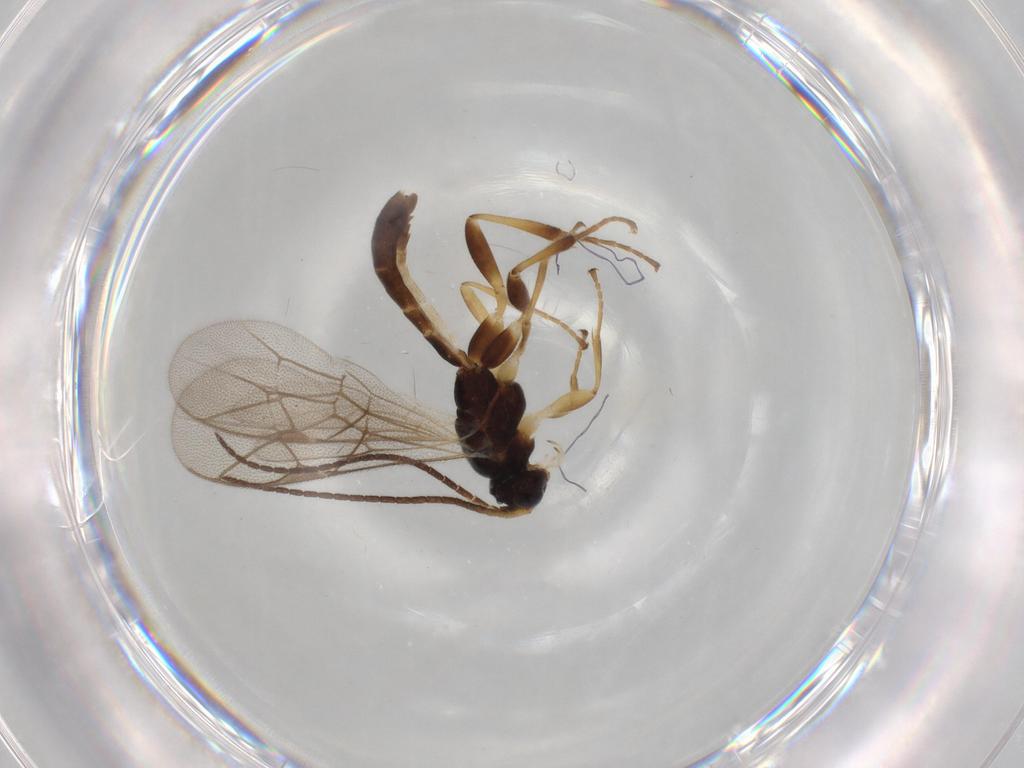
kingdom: Animalia
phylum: Arthropoda
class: Insecta
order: Hymenoptera
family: Ichneumonidae
